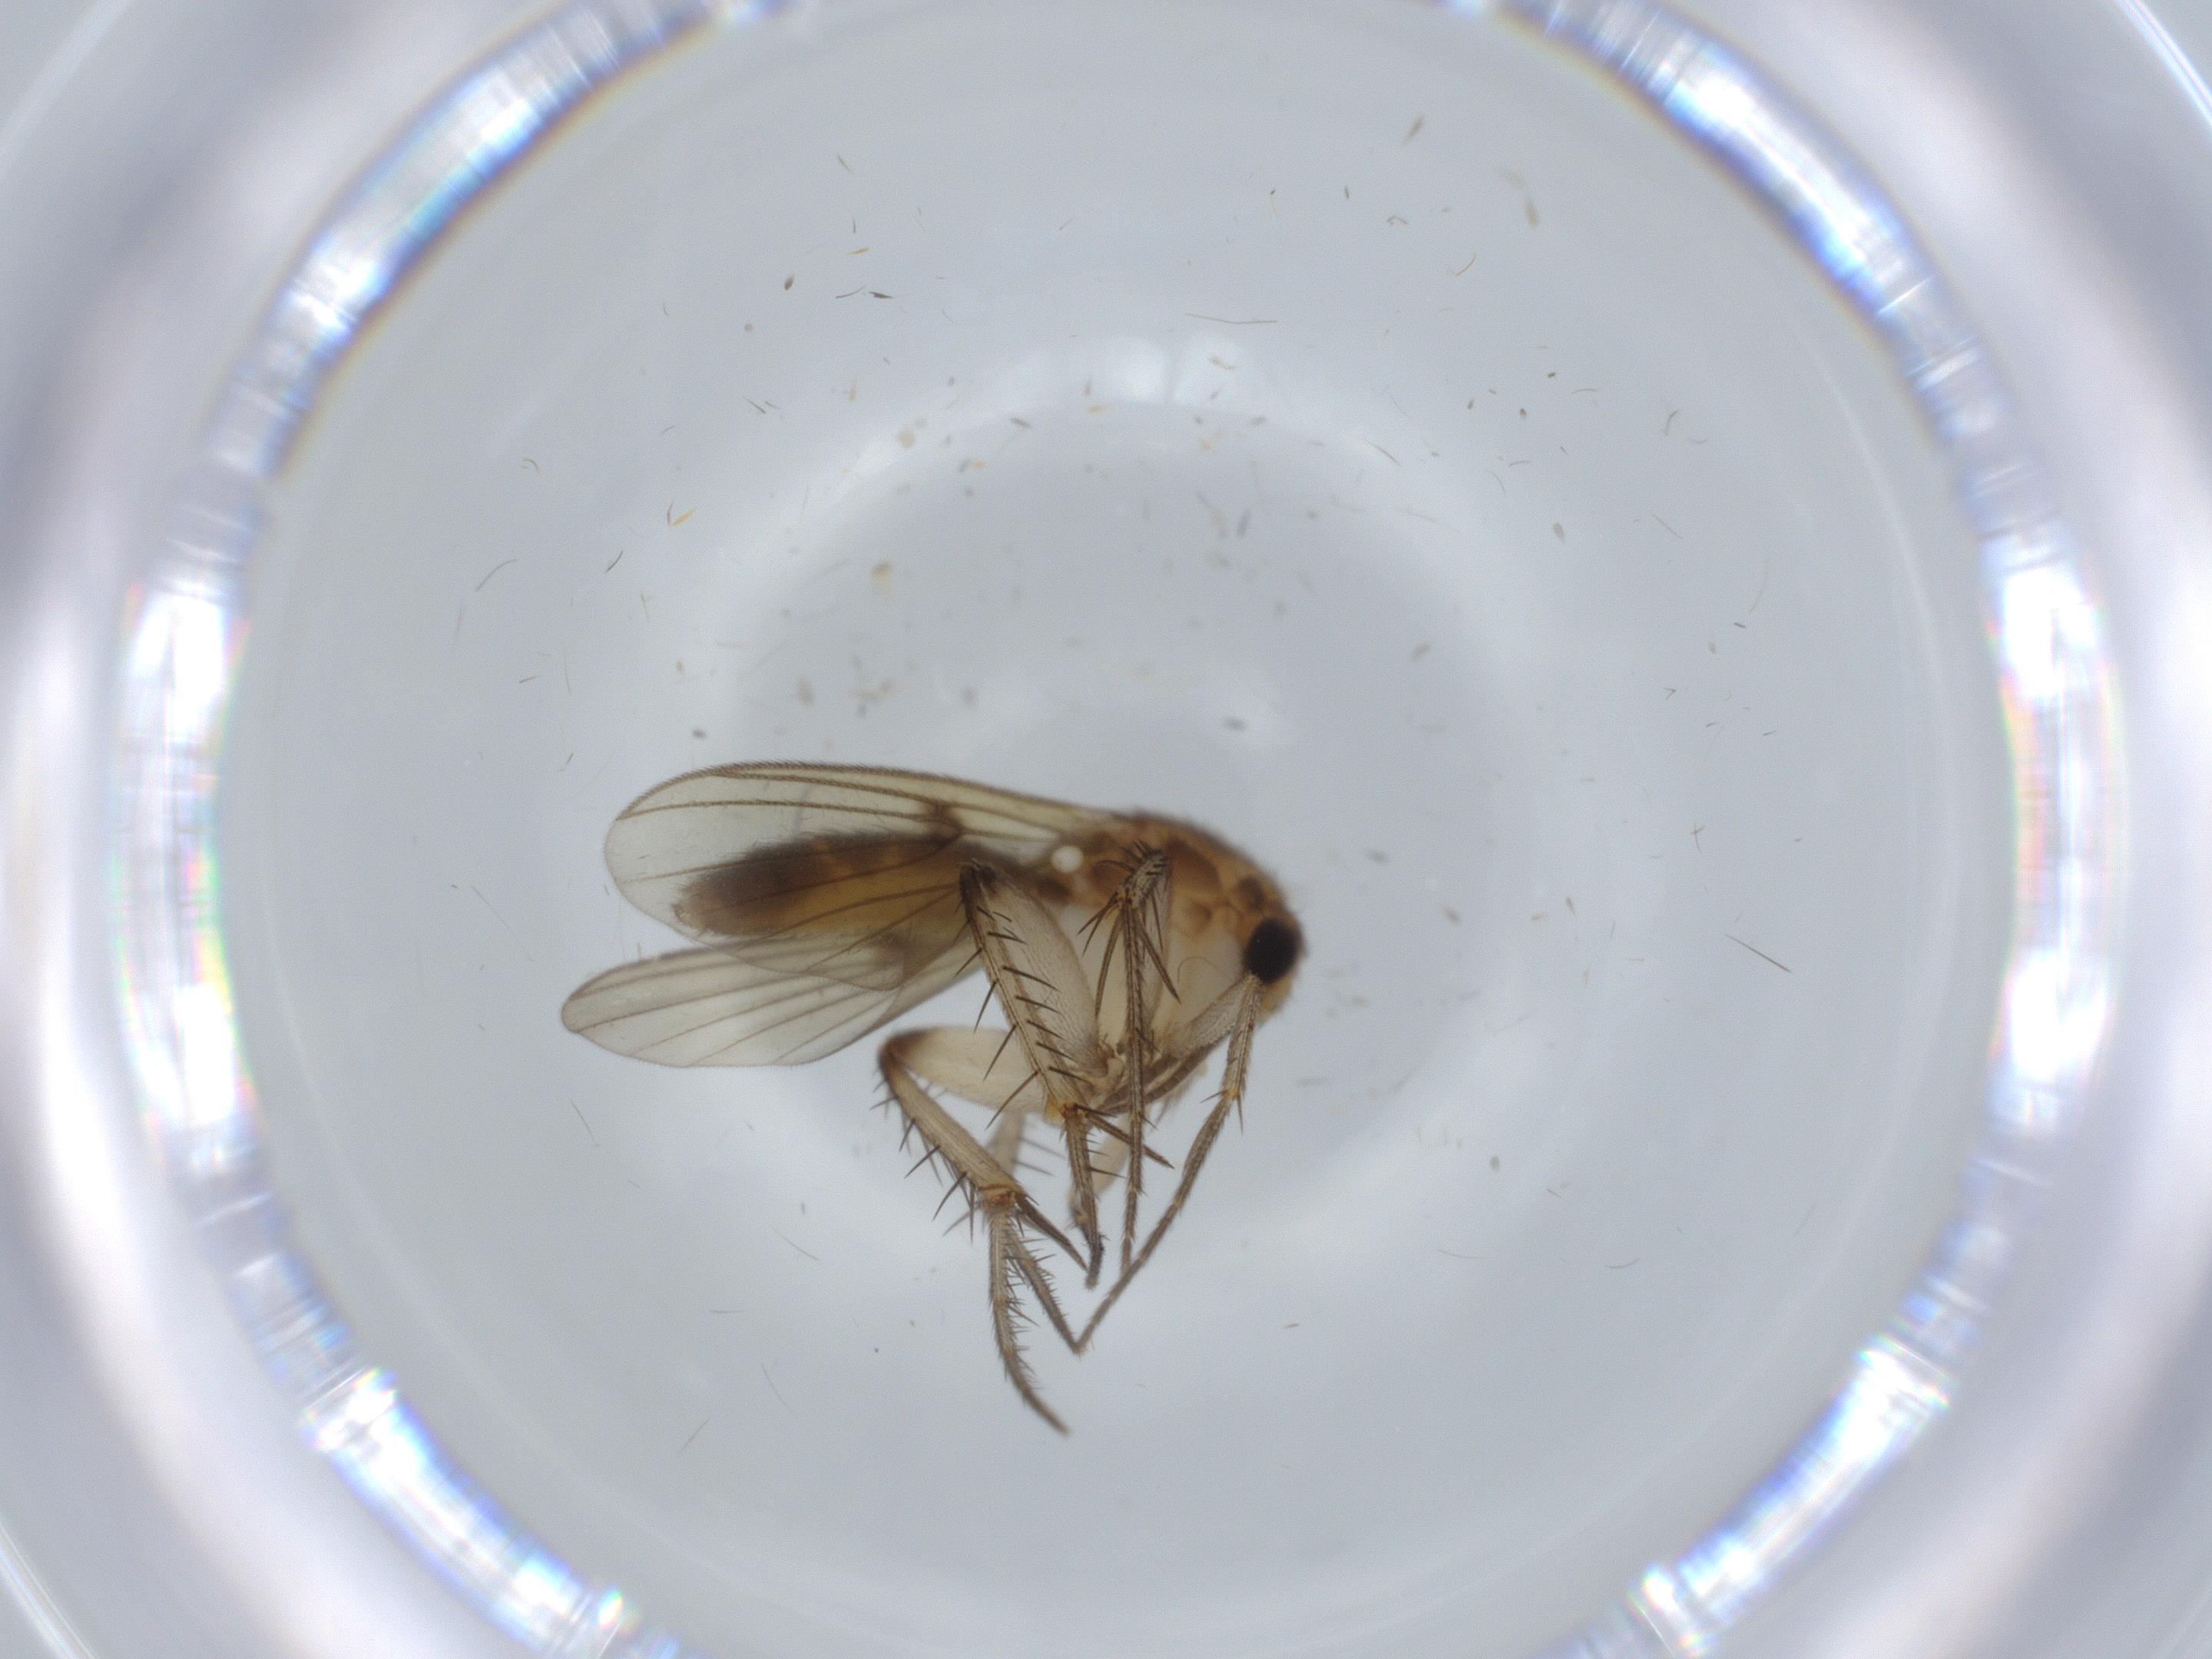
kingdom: Animalia
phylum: Arthropoda
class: Insecta
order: Diptera
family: Mycetophilidae
